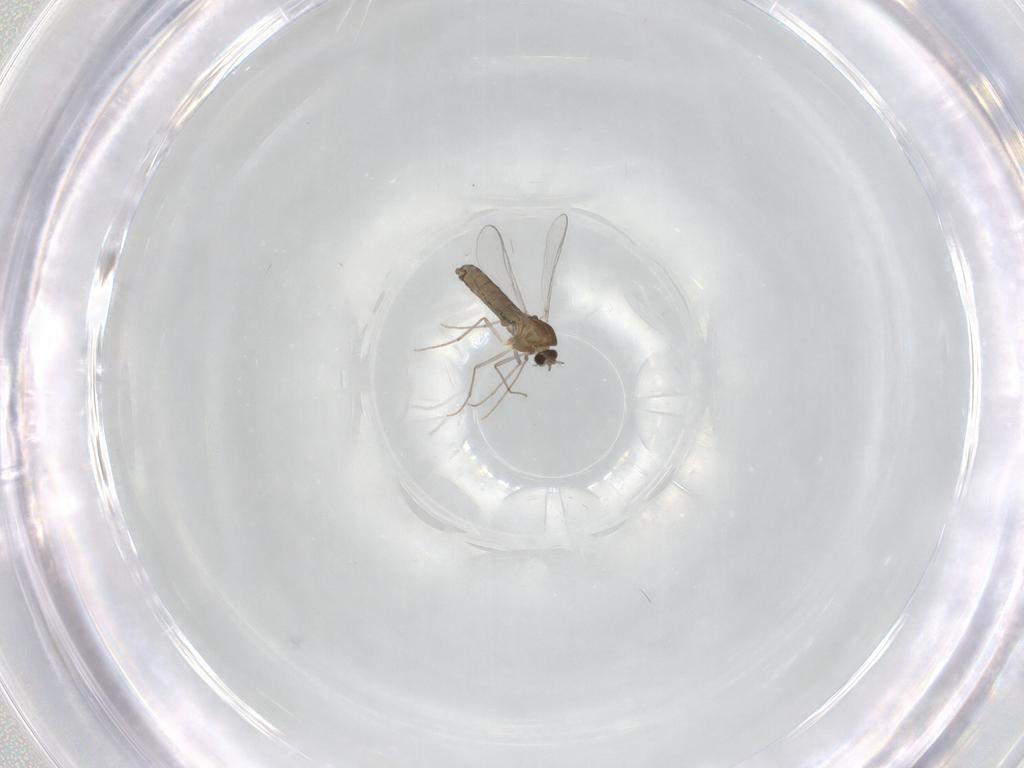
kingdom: Animalia
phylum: Arthropoda
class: Insecta
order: Diptera
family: Chironomidae
